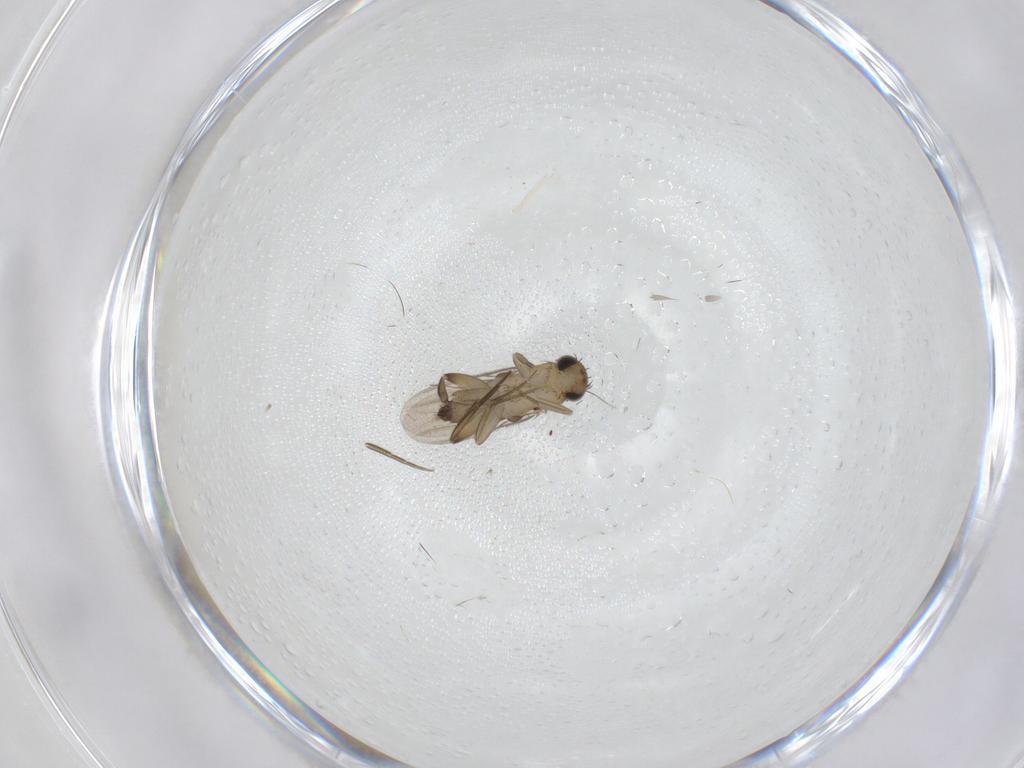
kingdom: Animalia
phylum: Arthropoda
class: Insecta
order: Diptera
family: Phoridae
